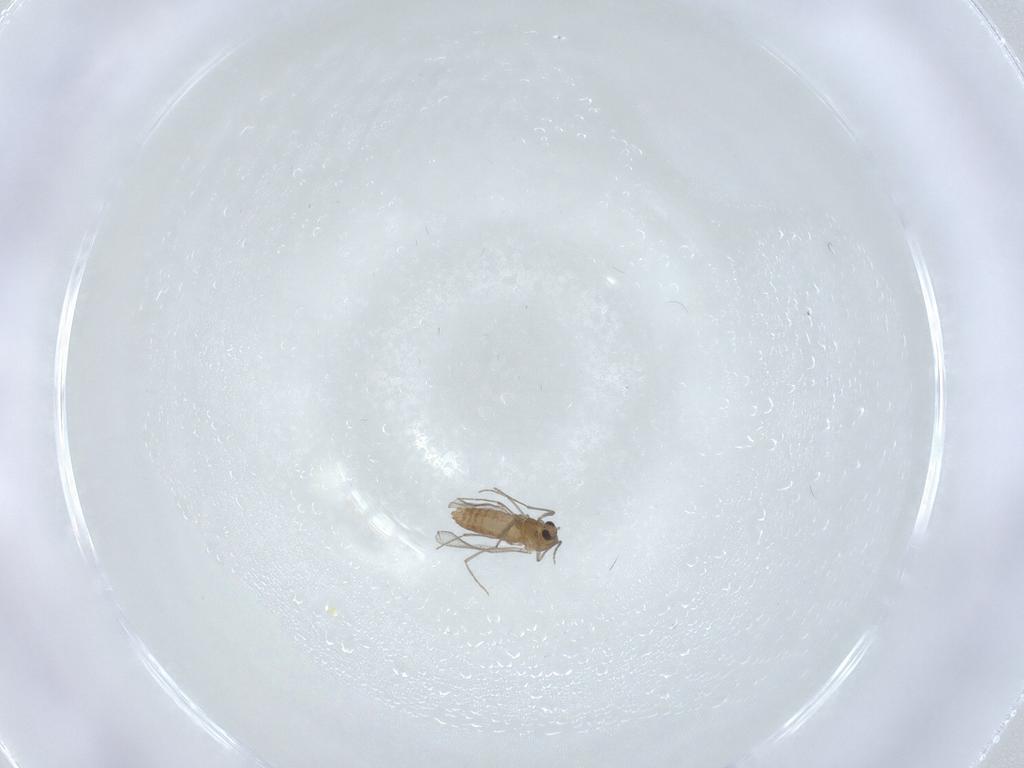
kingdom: Animalia
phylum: Arthropoda
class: Insecta
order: Diptera
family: Chironomidae
